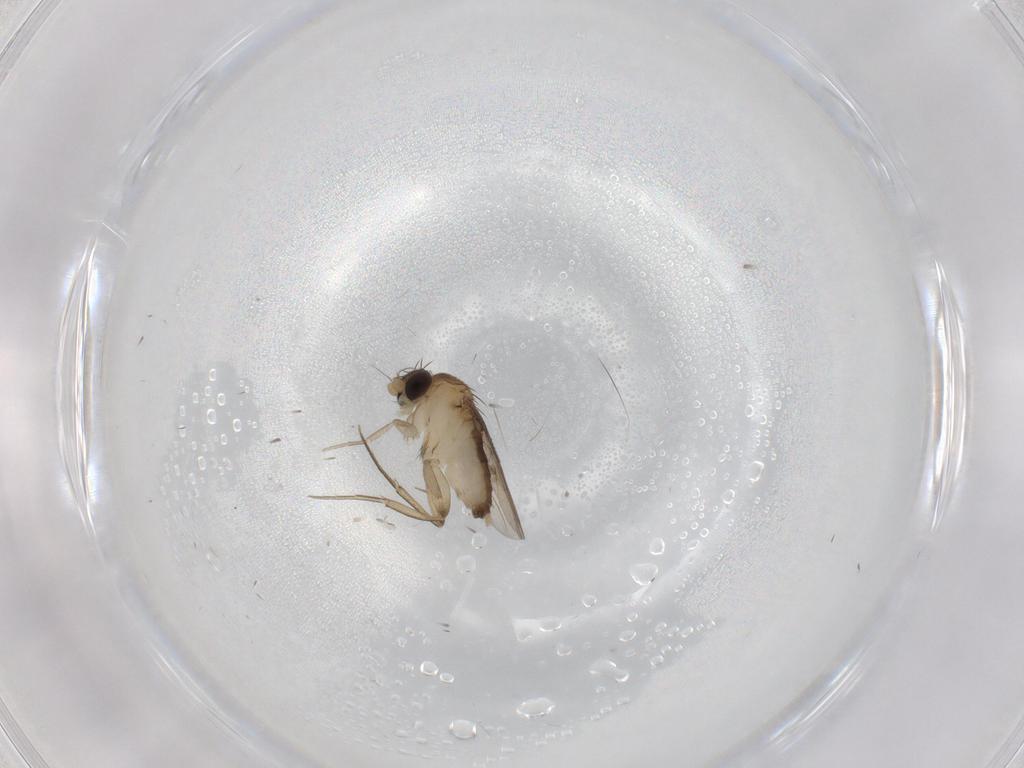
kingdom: Animalia
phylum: Arthropoda
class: Insecta
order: Diptera
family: Phoridae
